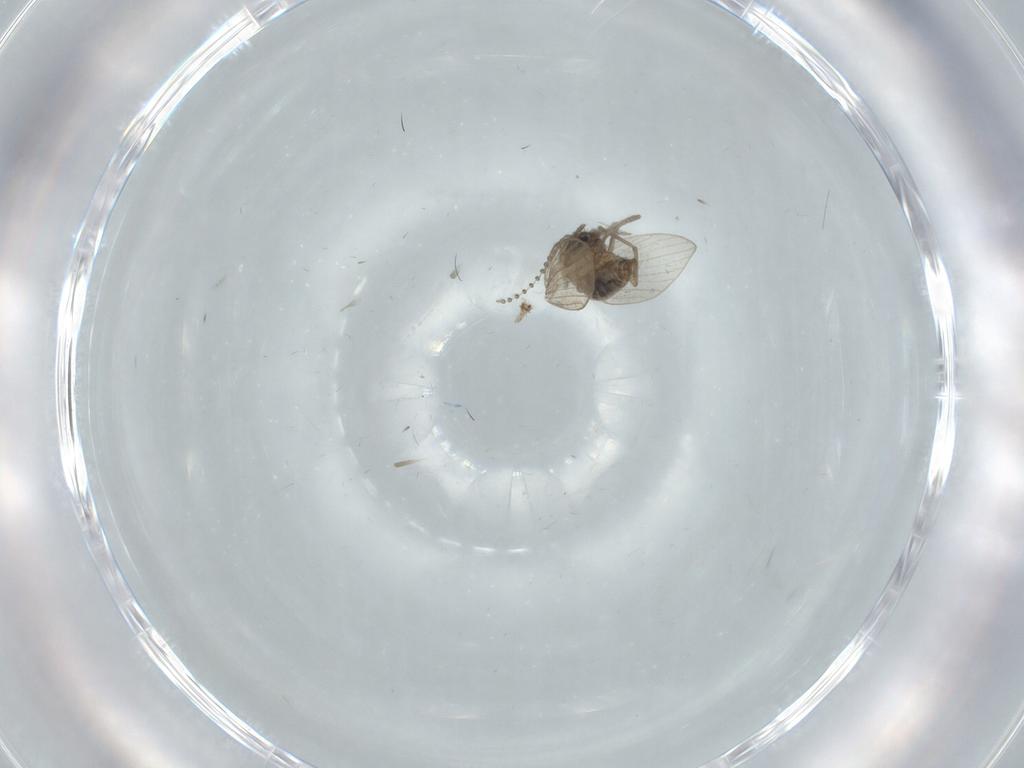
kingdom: Animalia
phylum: Arthropoda
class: Insecta
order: Diptera
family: Psychodidae
